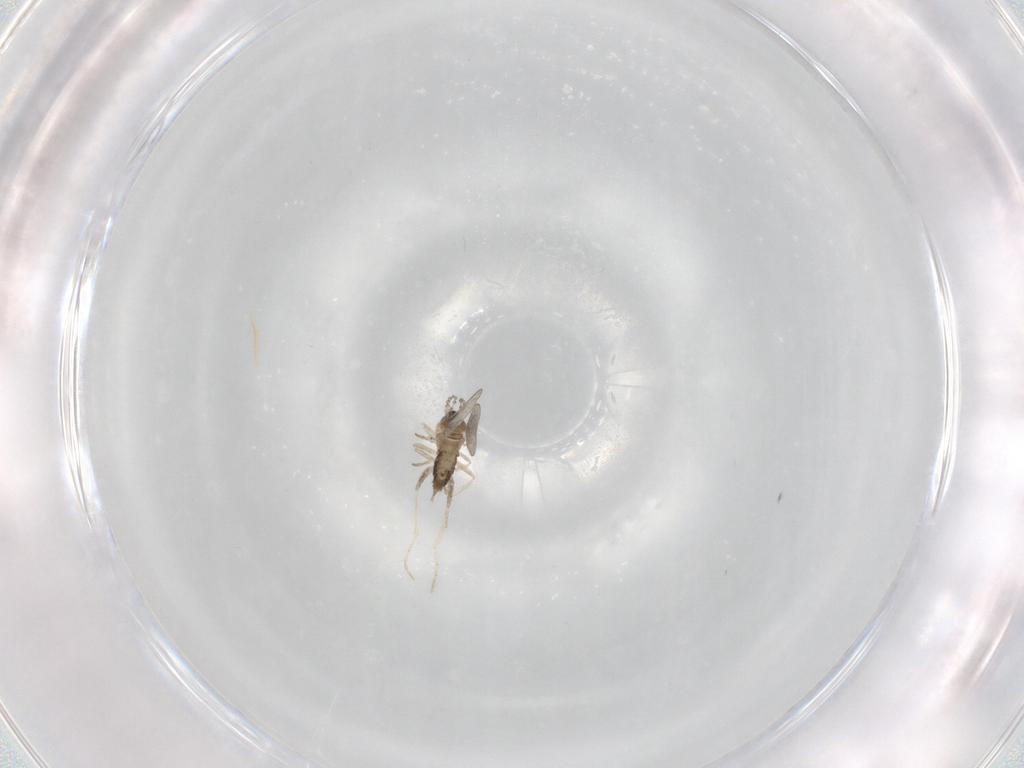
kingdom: Animalia
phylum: Arthropoda
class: Insecta
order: Diptera
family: Cecidomyiidae
